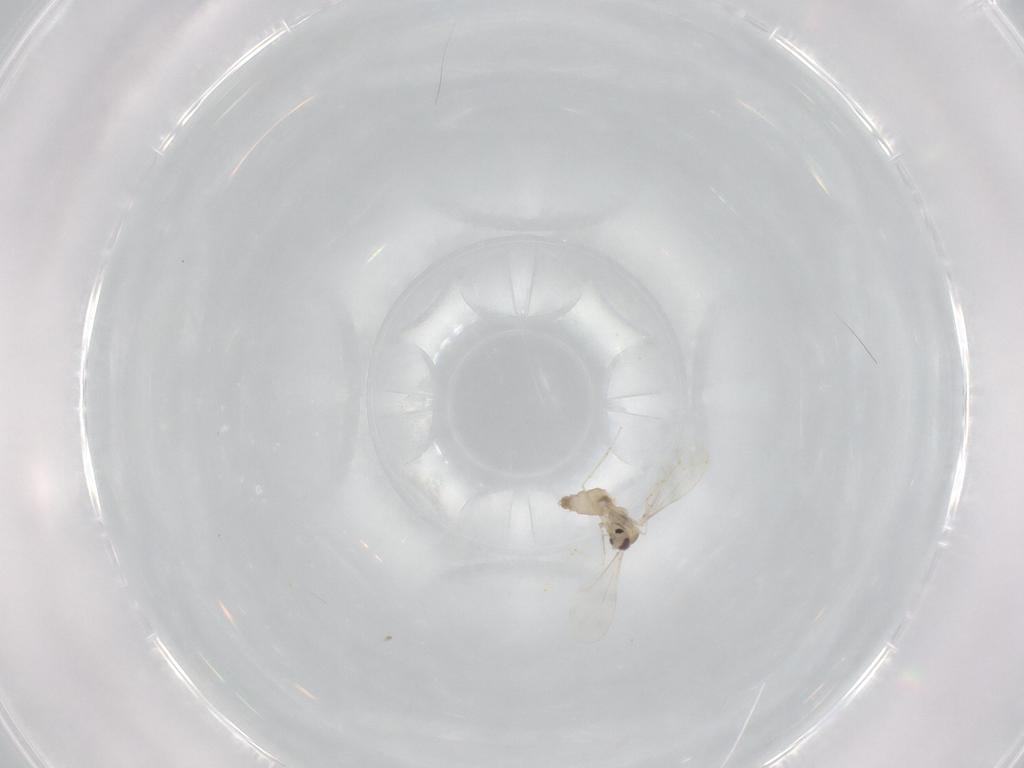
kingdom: Animalia
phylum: Arthropoda
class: Insecta
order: Diptera
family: Cecidomyiidae
